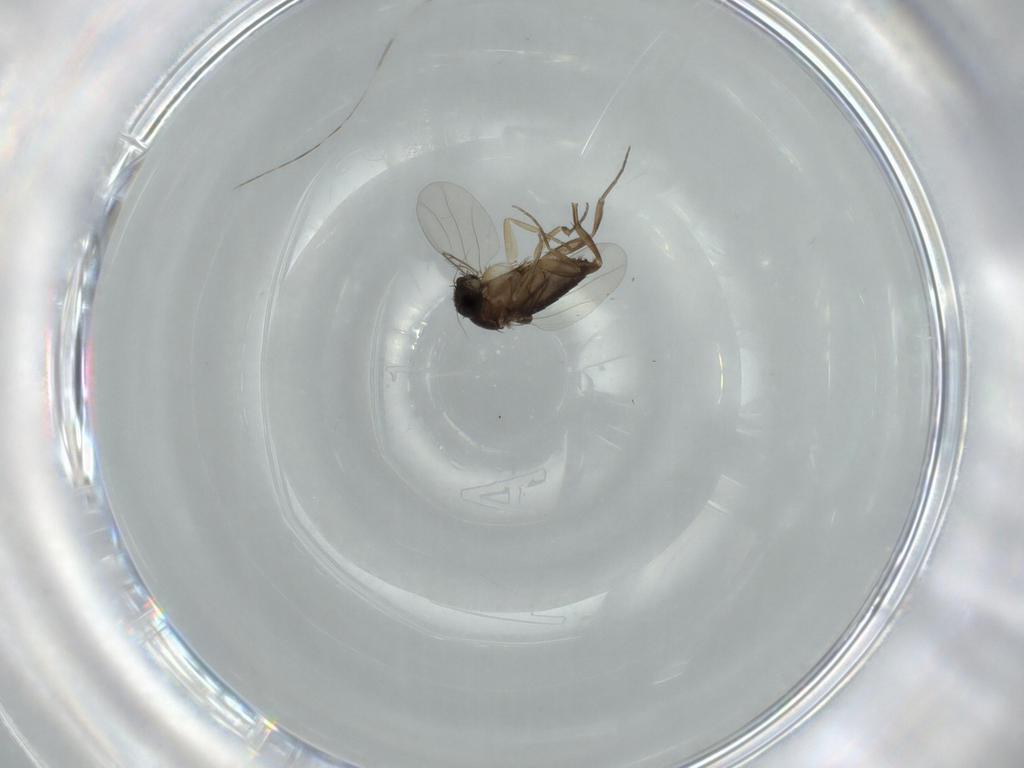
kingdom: Animalia
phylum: Arthropoda
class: Insecta
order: Diptera
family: Phoridae
